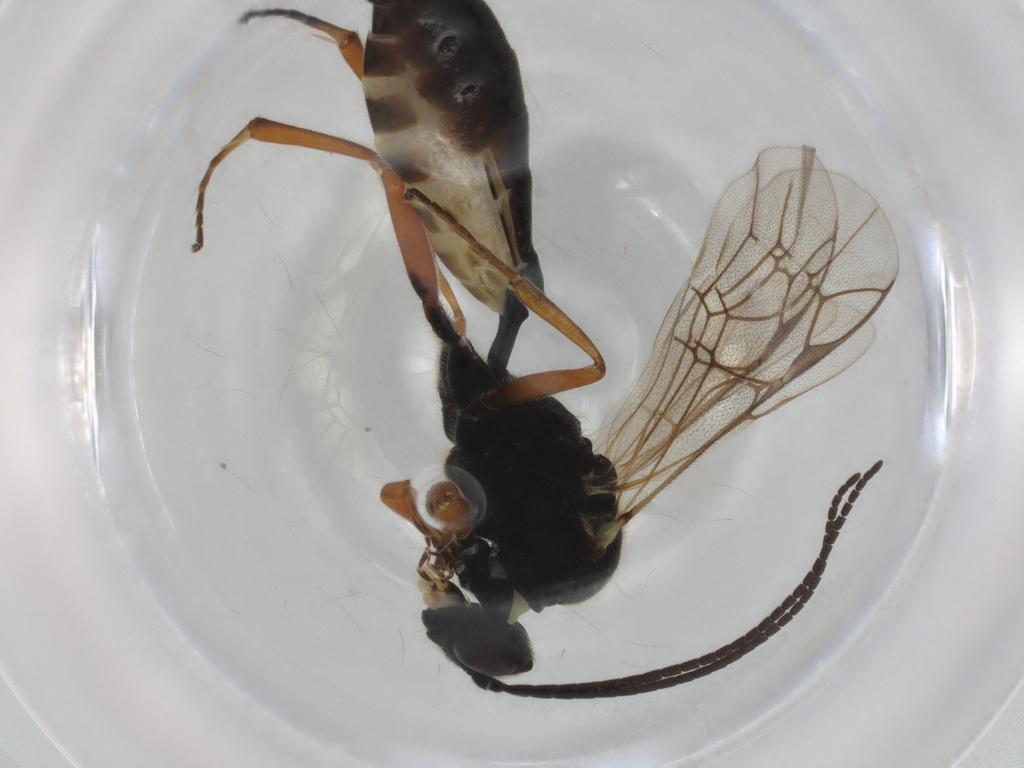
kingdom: Animalia
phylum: Arthropoda
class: Insecta
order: Hymenoptera
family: Ichneumonidae
